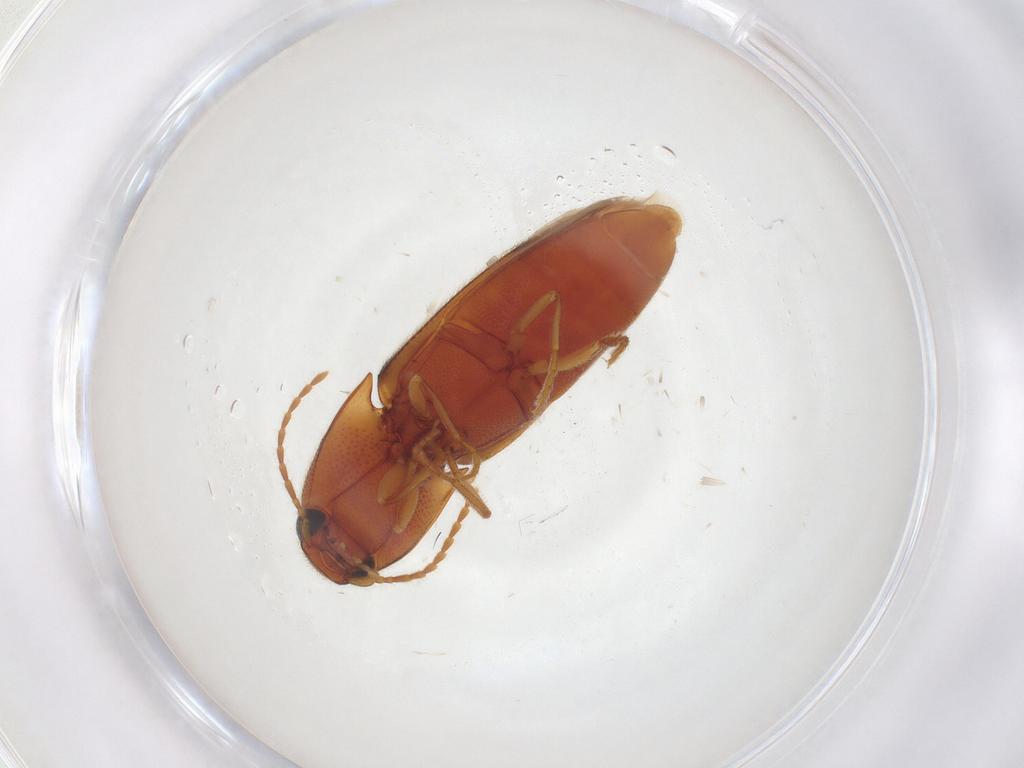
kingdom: Animalia
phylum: Arthropoda
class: Insecta
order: Coleoptera
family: Elateridae
